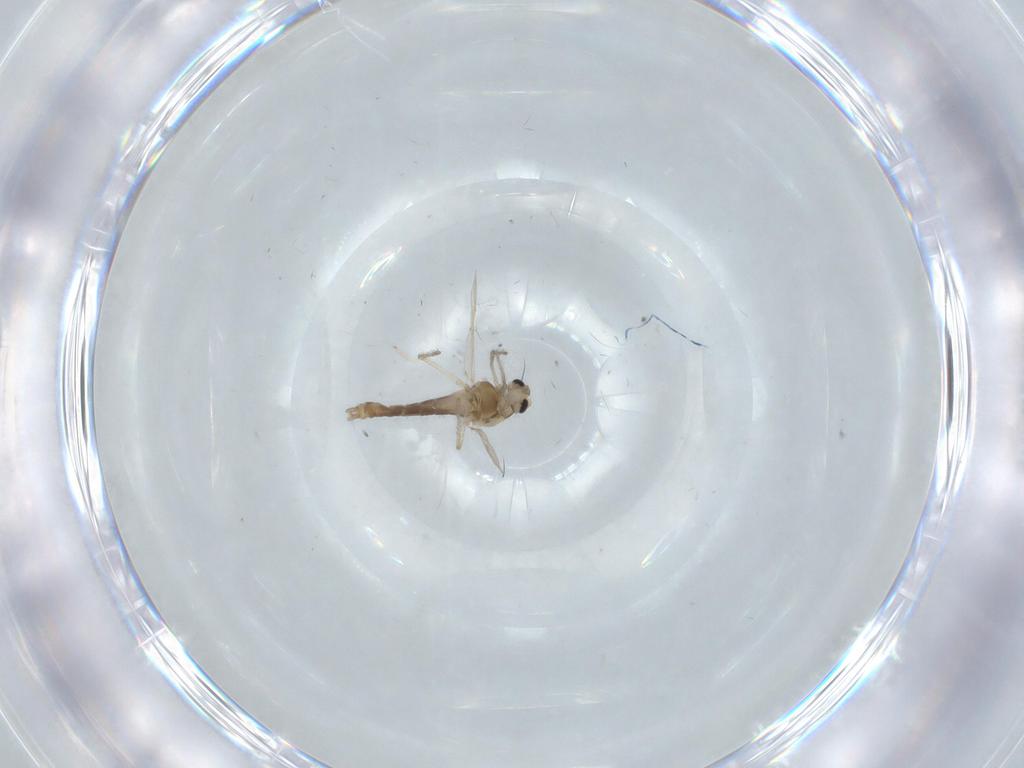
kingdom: Animalia
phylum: Arthropoda
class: Insecta
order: Diptera
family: Chironomidae
